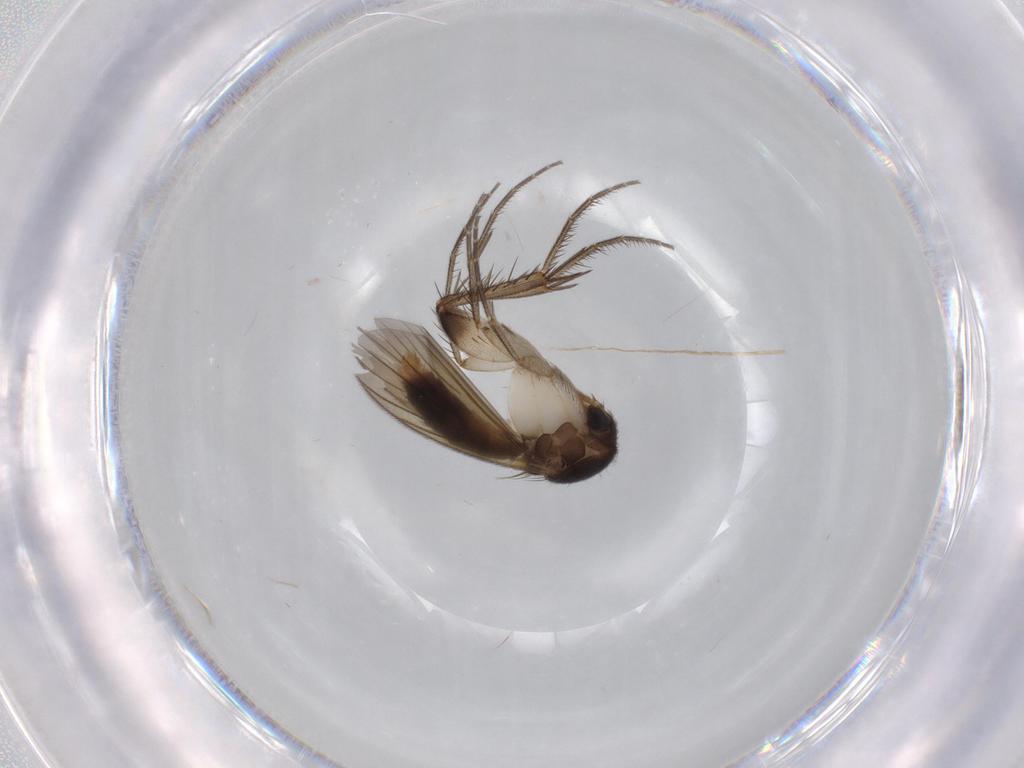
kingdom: Animalia
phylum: Arthropoda
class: Insecta
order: Diptera
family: Mycetophilidae
